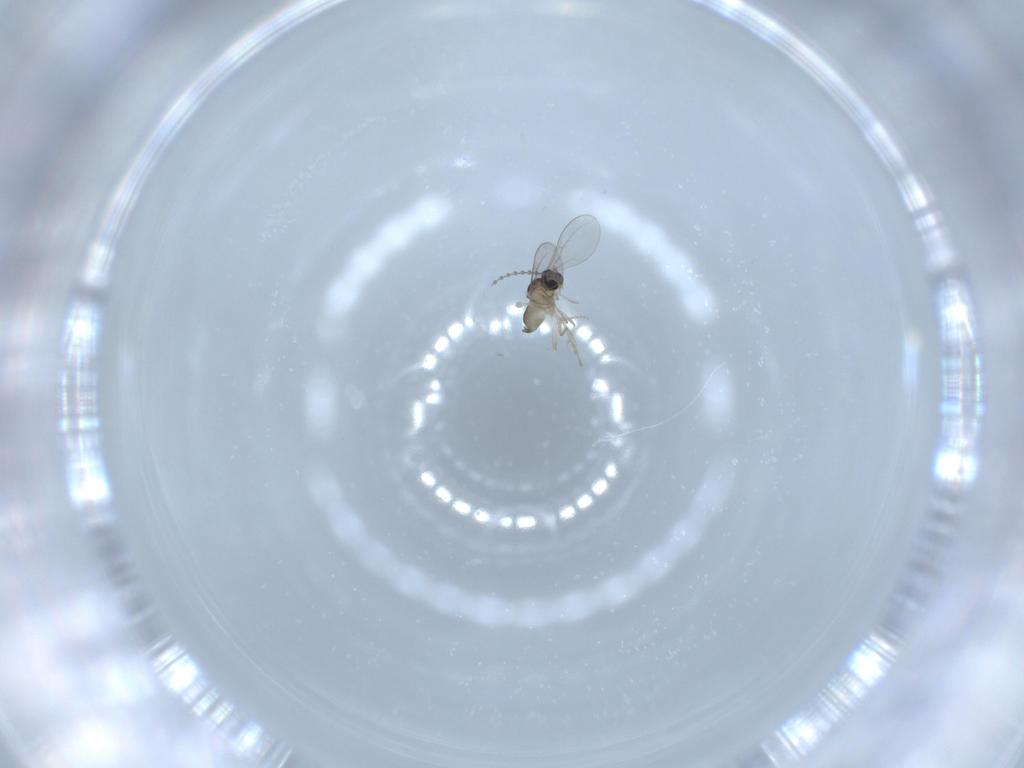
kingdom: Animalia
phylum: Arthropoda
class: Insecta
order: Diptera
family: Cecidomyiidae
